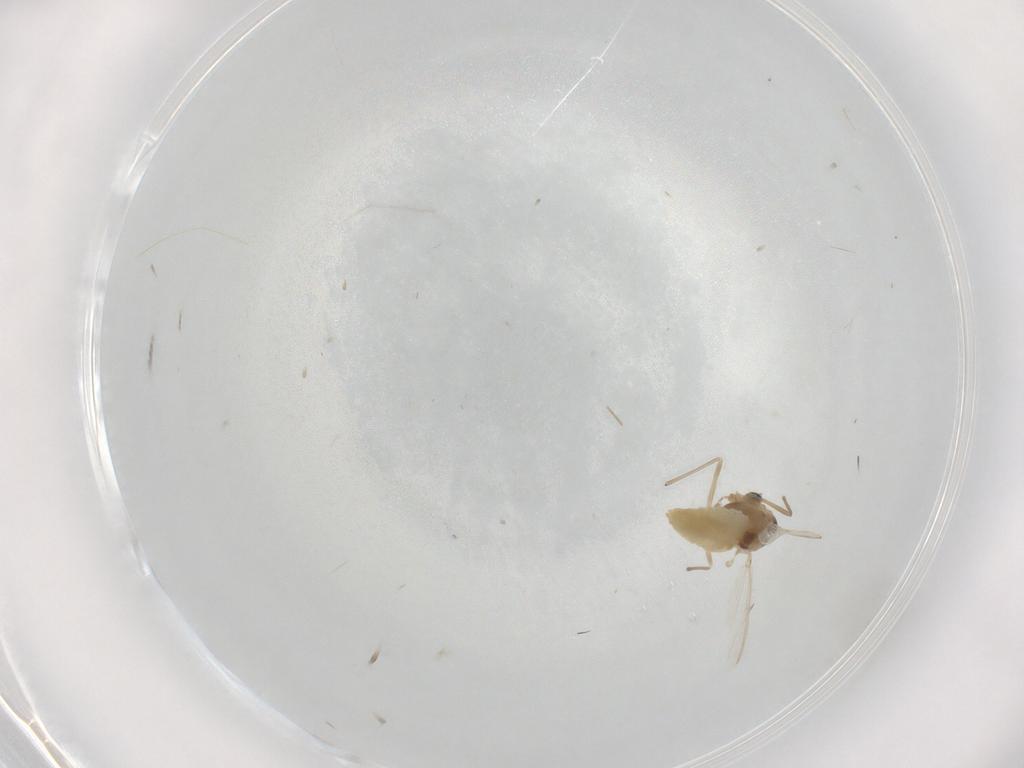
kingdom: Animalia
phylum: Arthropoda
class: Insecta
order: Diptera
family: Chironomidae
